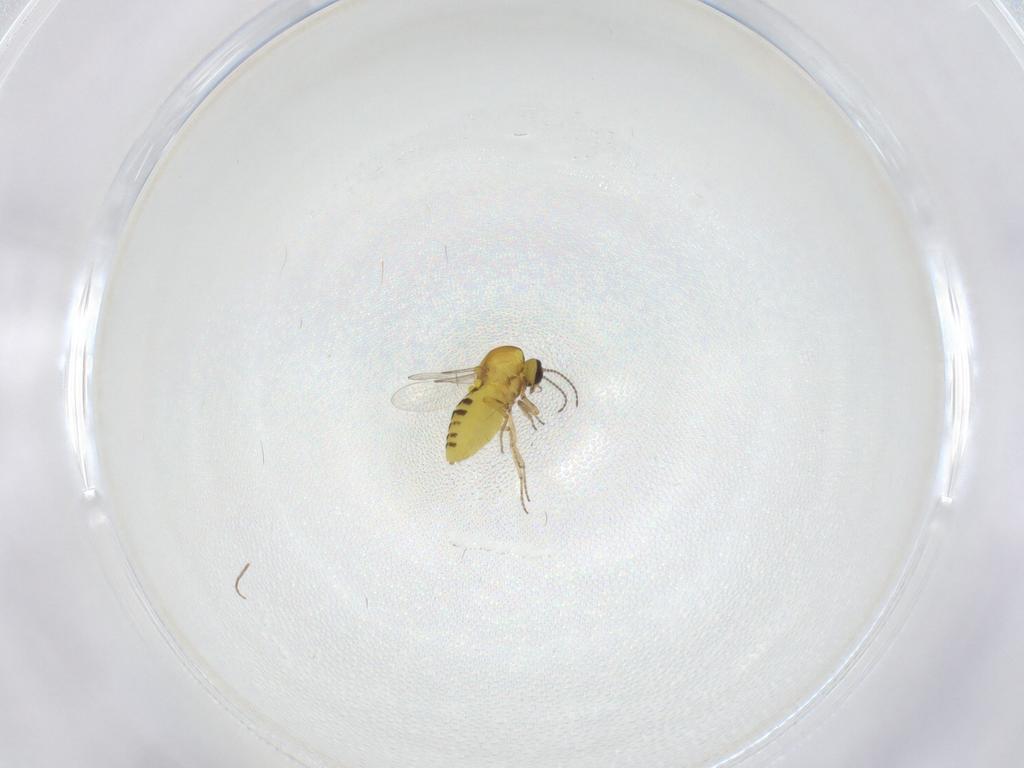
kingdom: Animalia
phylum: Arthropoda
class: Insecta
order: Diptera
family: Ceratopogonidae
